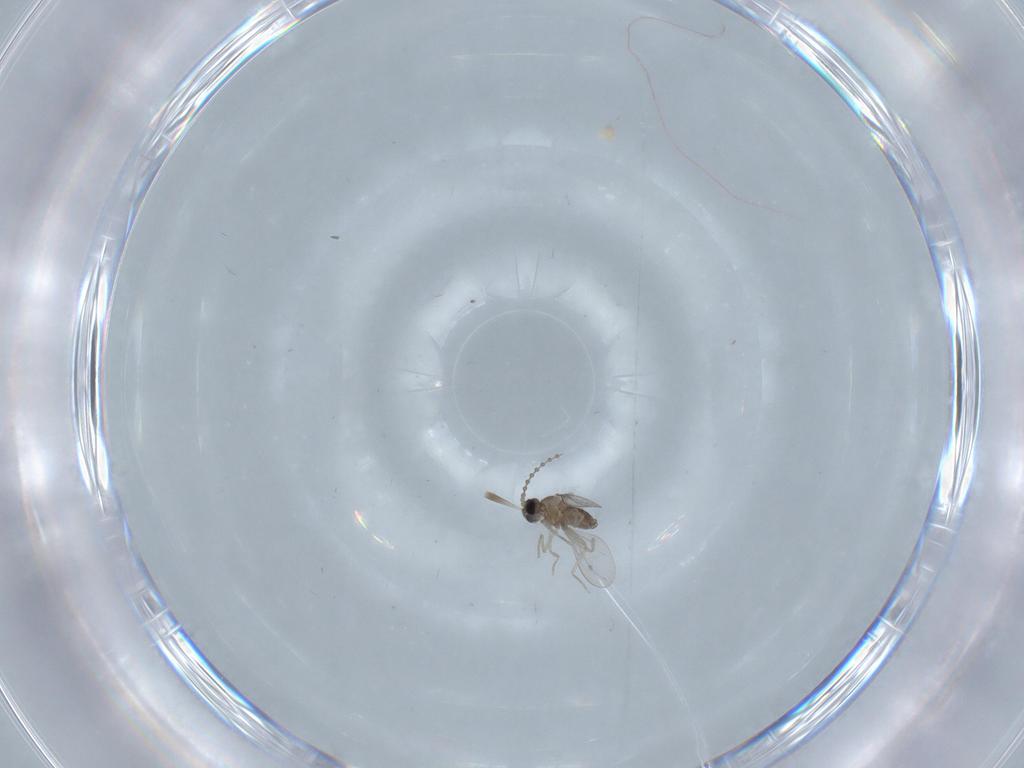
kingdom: Animalia
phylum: Arthropoda
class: Insecta
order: Diptera
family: Cecidomyiidae
